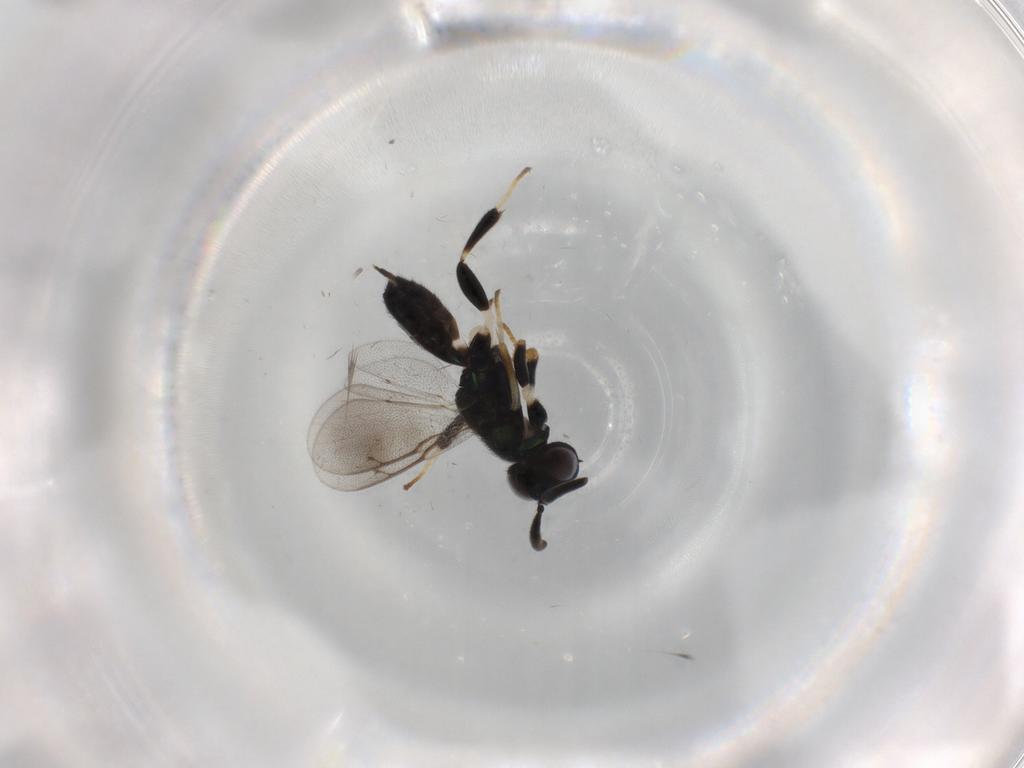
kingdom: Animalia
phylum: Arthropoda
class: Insecta
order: Hymenoptera
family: Eupelmidae
